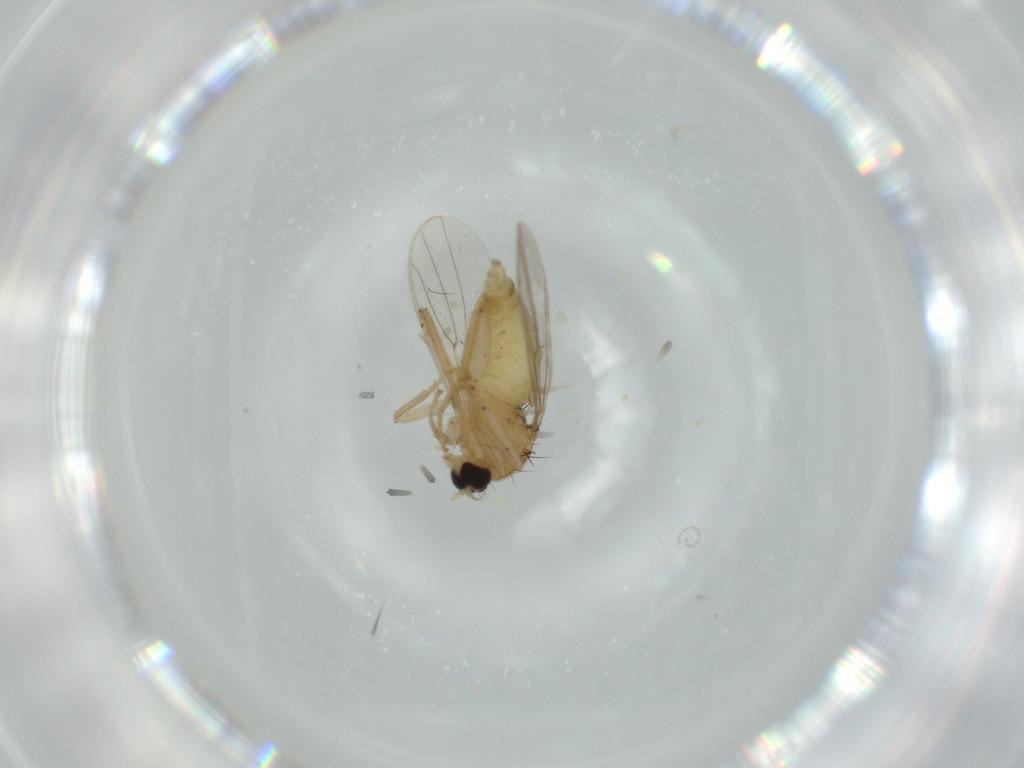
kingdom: Animalia
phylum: Arthropoda
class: Insecta
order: Diptera
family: Hybotidae
